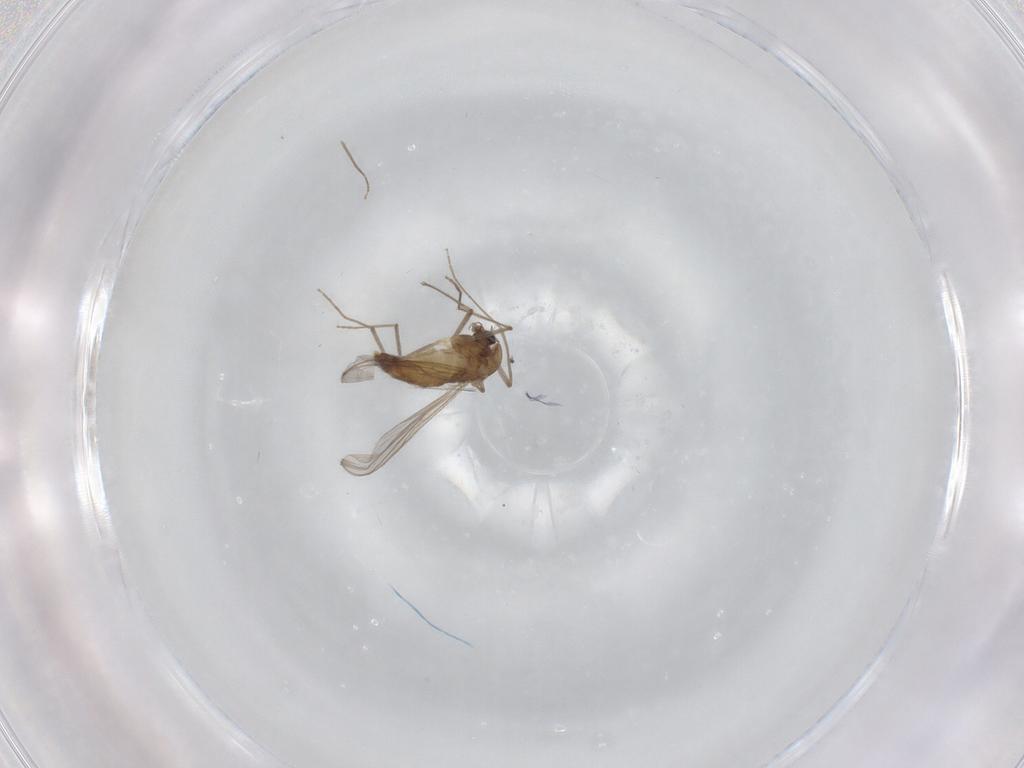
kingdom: Animalia
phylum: Arthropoda
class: Insecta
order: Diptera
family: Chironomidae
